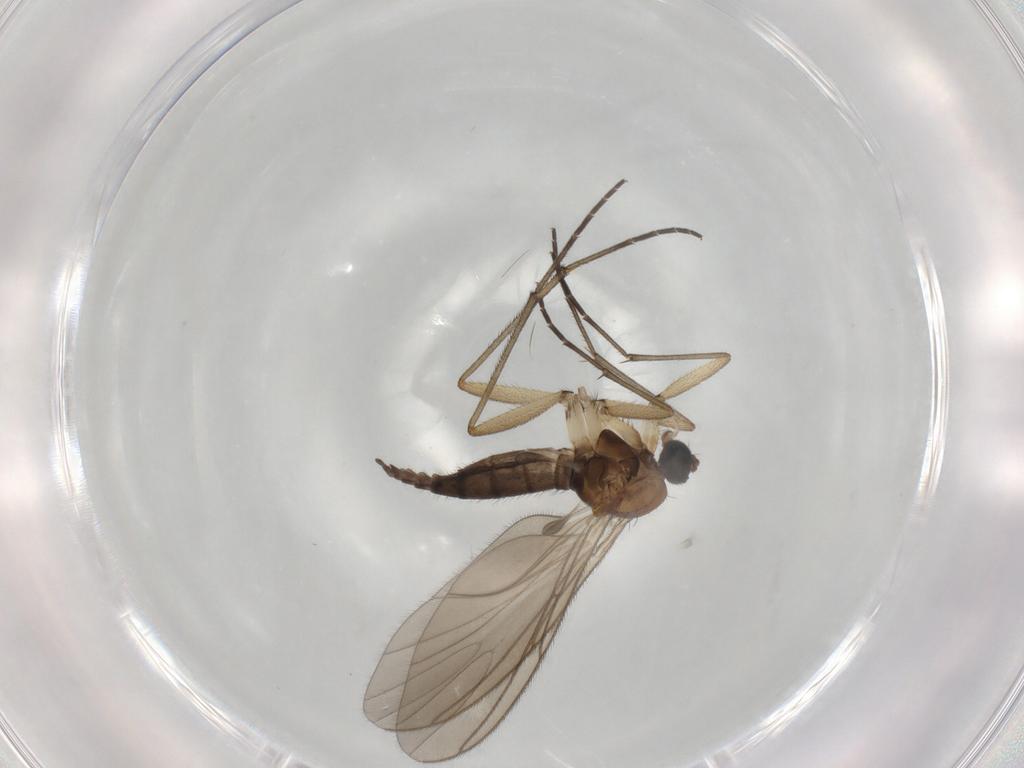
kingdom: Animalia
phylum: Arthropoda
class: Insecta
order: Diptera
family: Sciaridae
